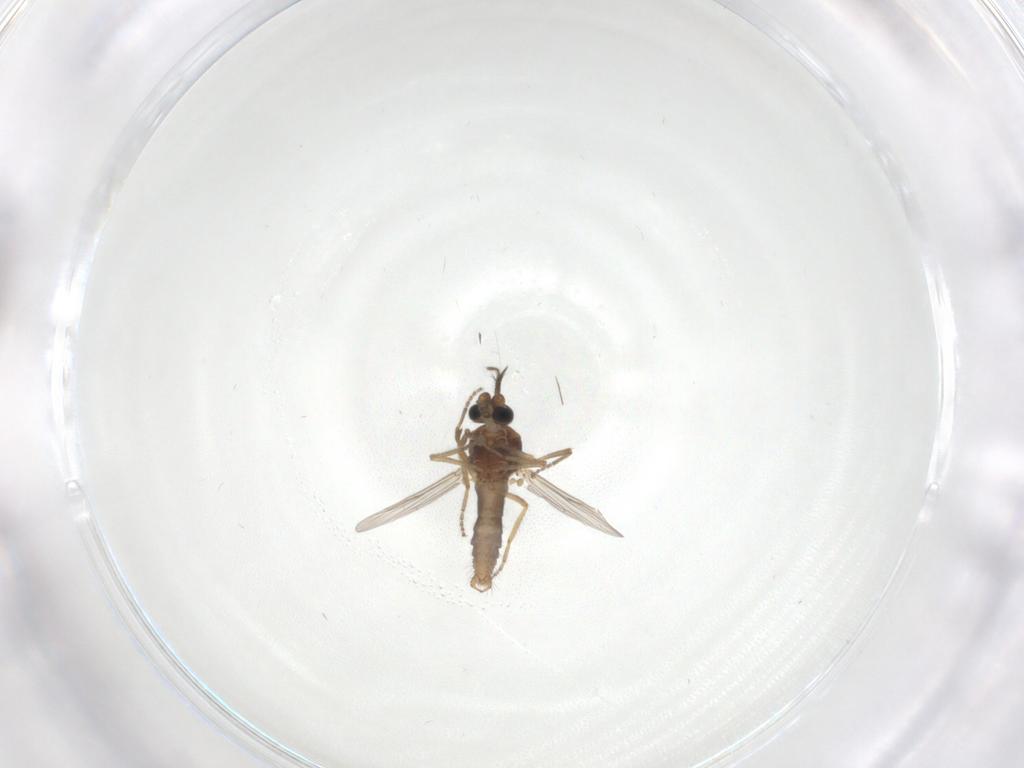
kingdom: Animalia
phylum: Arthropoda
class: Insecta
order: Diptera
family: Ceratopogonidae
